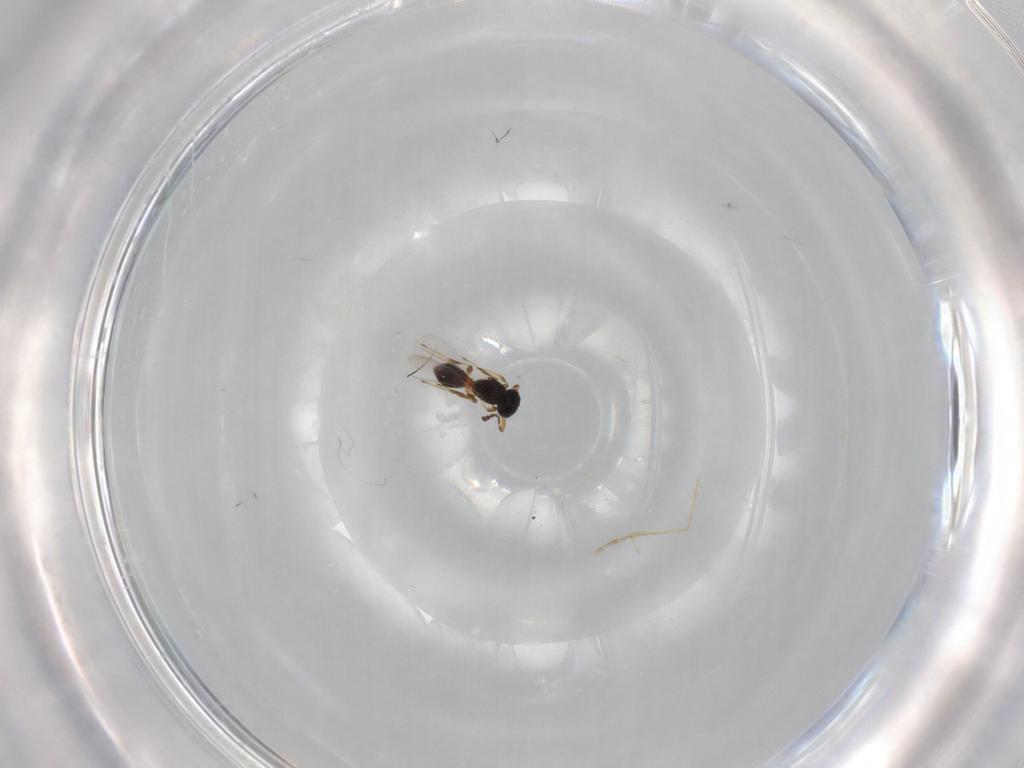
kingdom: Animalia
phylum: Arthropoda
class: Insecta
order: Hymenoptera
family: Platygastridae
